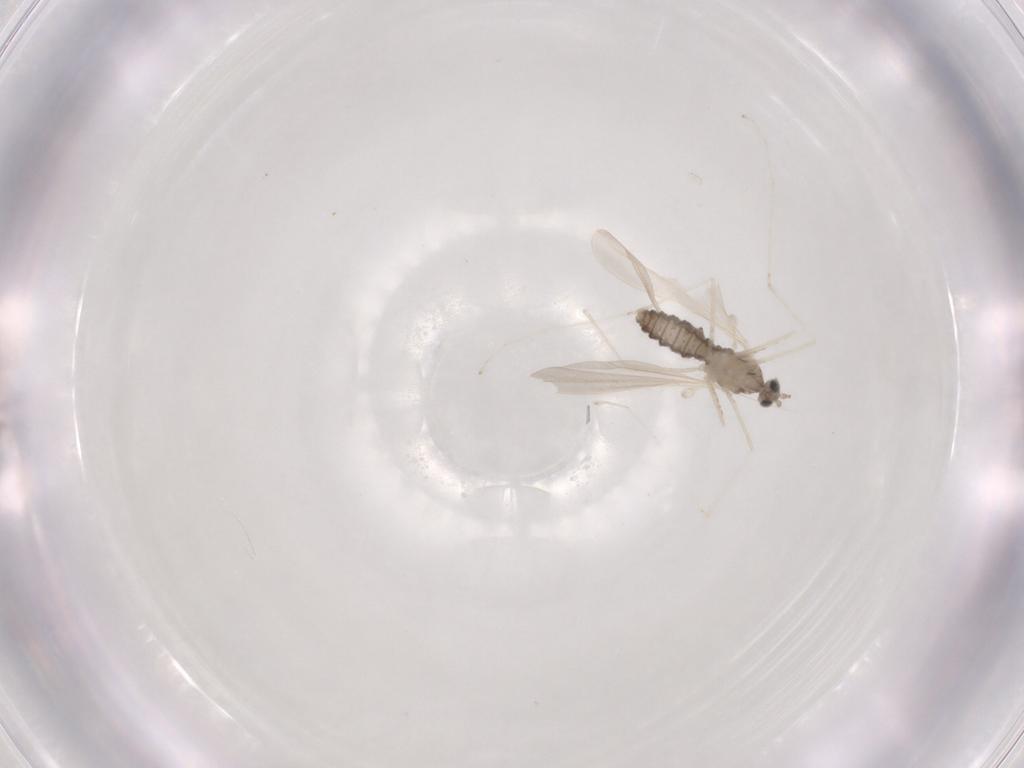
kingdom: Animalia
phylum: Arthropoda
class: Insecta
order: Diptera
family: Cecidomyiidae
